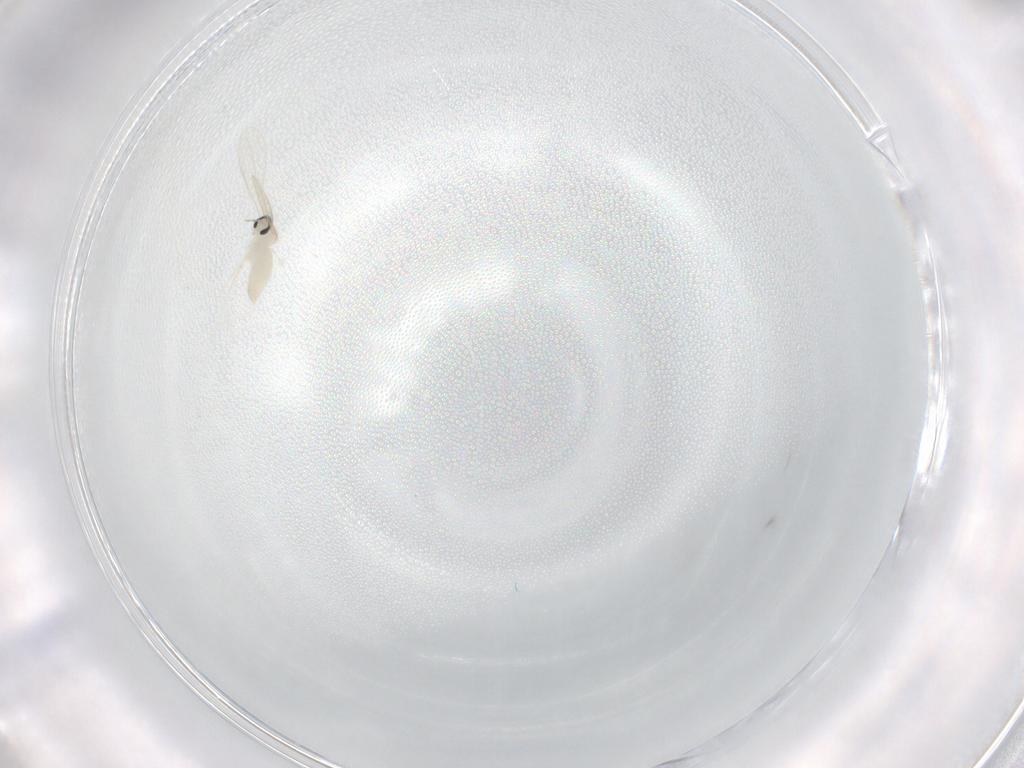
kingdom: Animalia
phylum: Arthropoda
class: Insecta
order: Diptera
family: Cecidomyiidae
